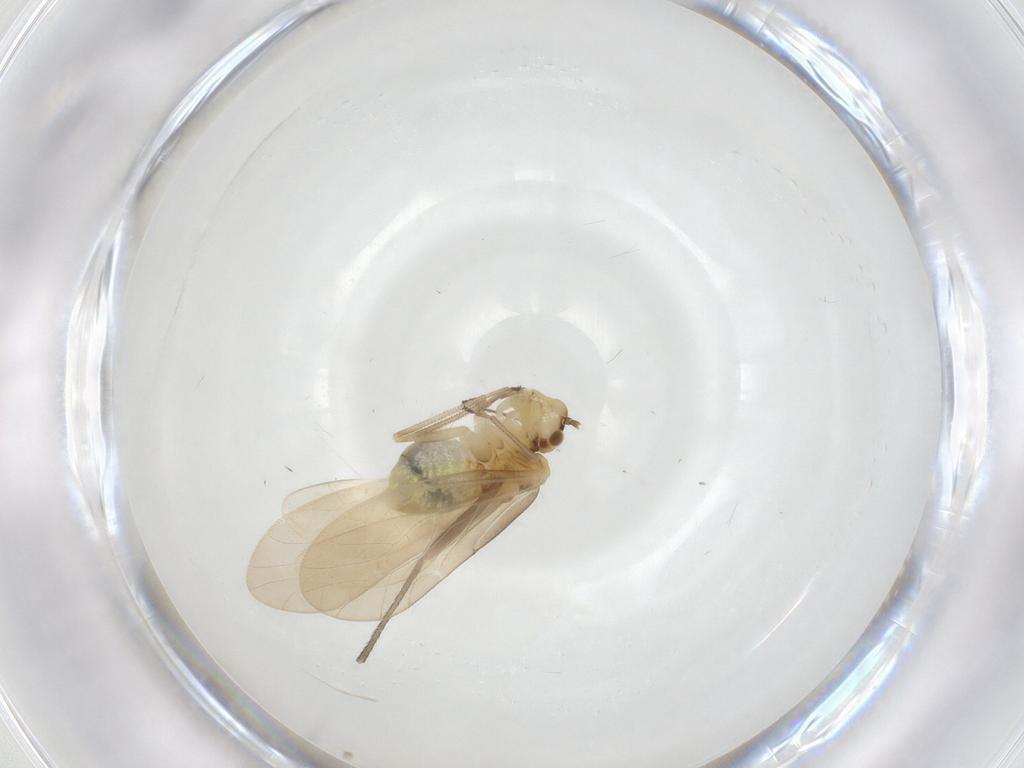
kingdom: Animalia
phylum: Arthropoda
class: Insecta
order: Psocodea
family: Caeciliusidae
